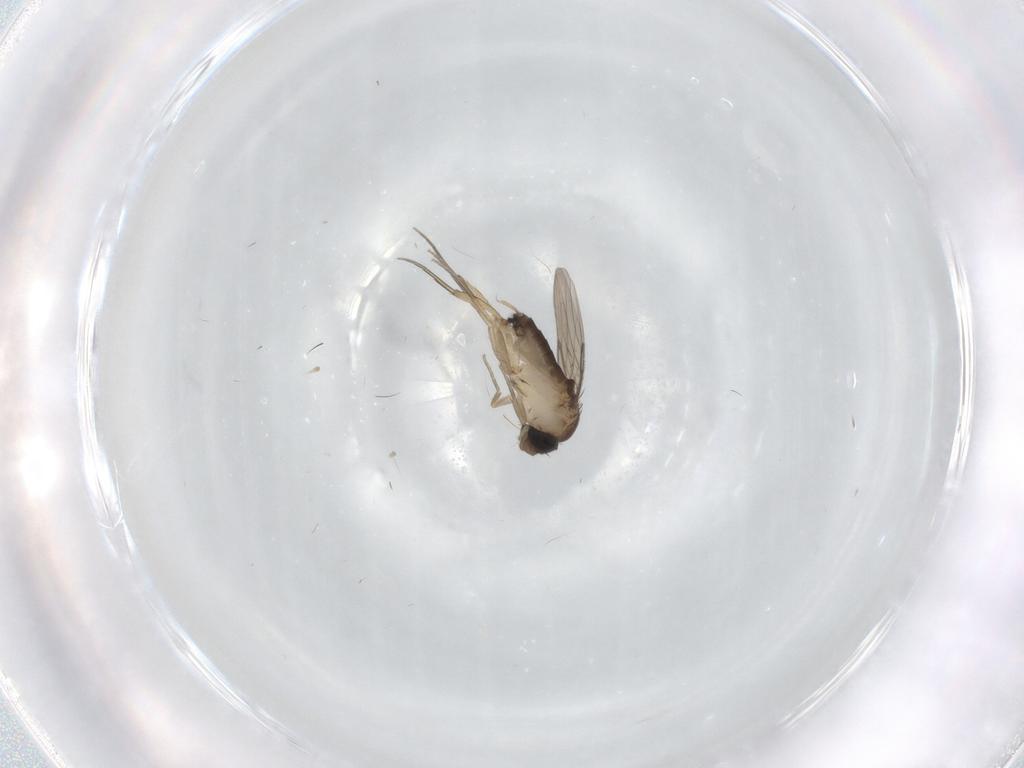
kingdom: Animalia
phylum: Arthropoda
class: Insecta
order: Diptera
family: Phoridae
